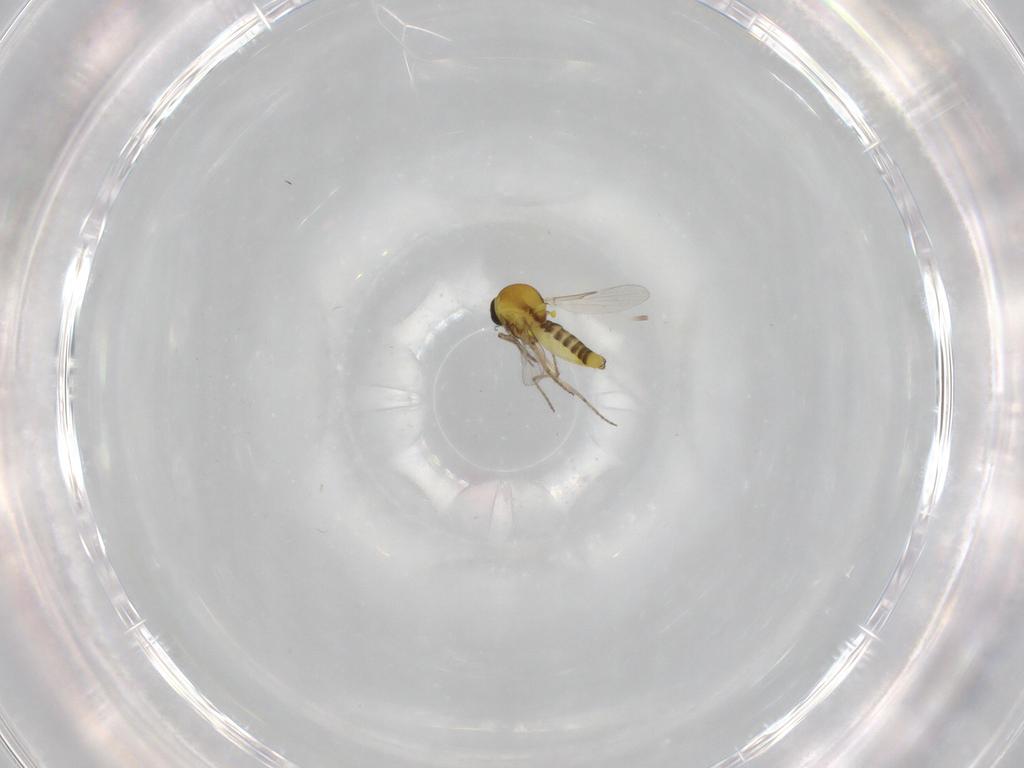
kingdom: Animalia
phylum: Arthropoda
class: Insecta
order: Diptera
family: Ceratopogonidae
